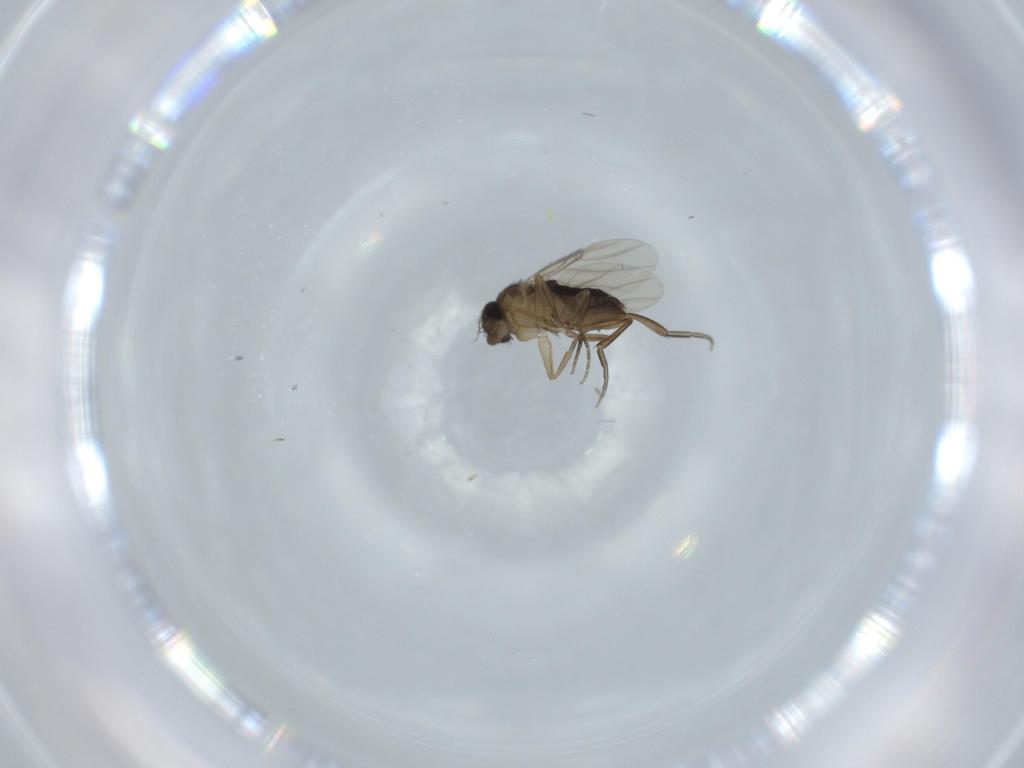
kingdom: Animalia
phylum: Arthropoda
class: Insecta
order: Diptera
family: Phoridae
